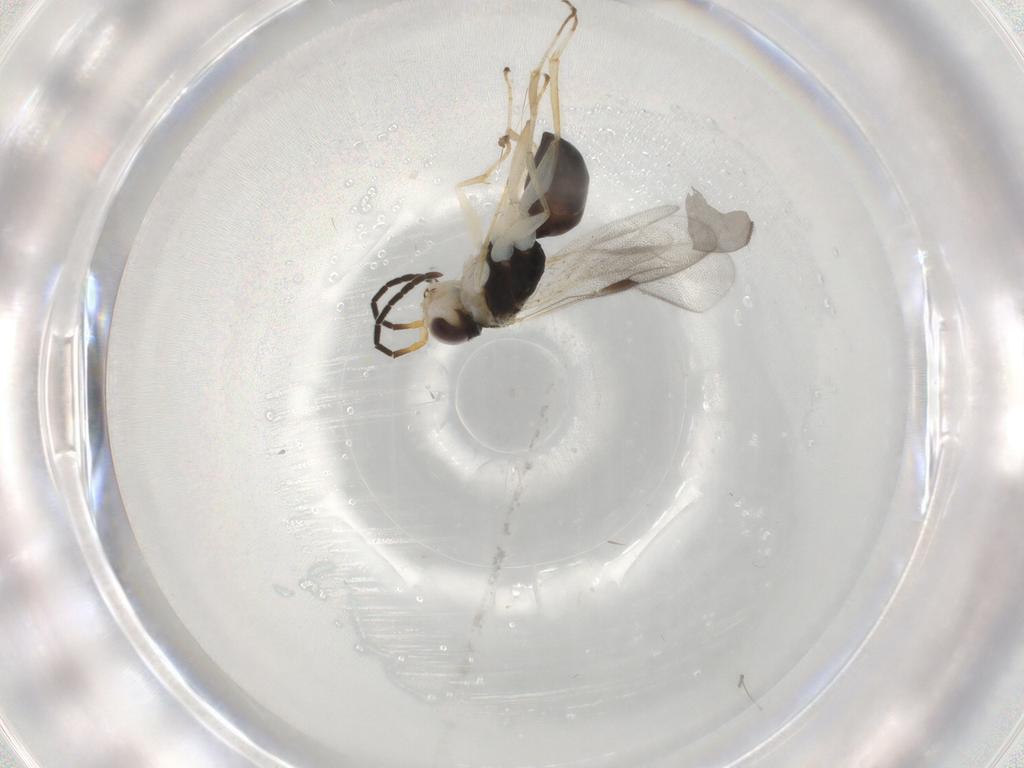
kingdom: Animalia
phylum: Arthropoda
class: Insecta
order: Hymenoptera
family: Dryinidae
